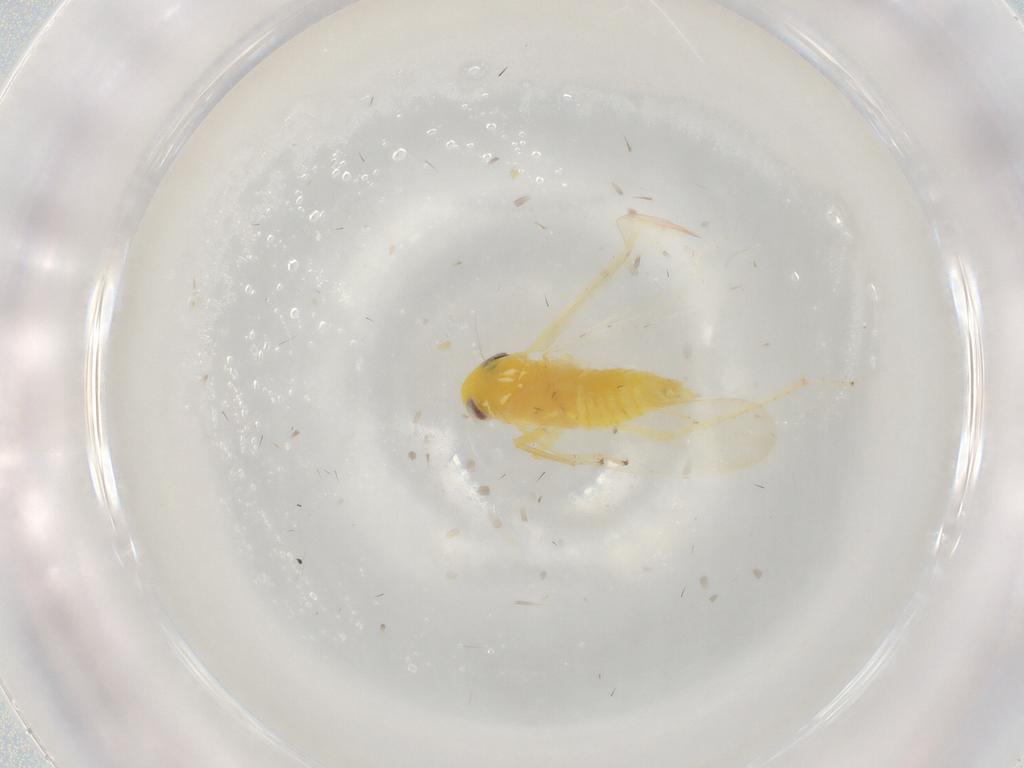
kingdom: Animalia
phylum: Arthropoda
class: Insecta
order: Hemiptera
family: Cicadellidae
